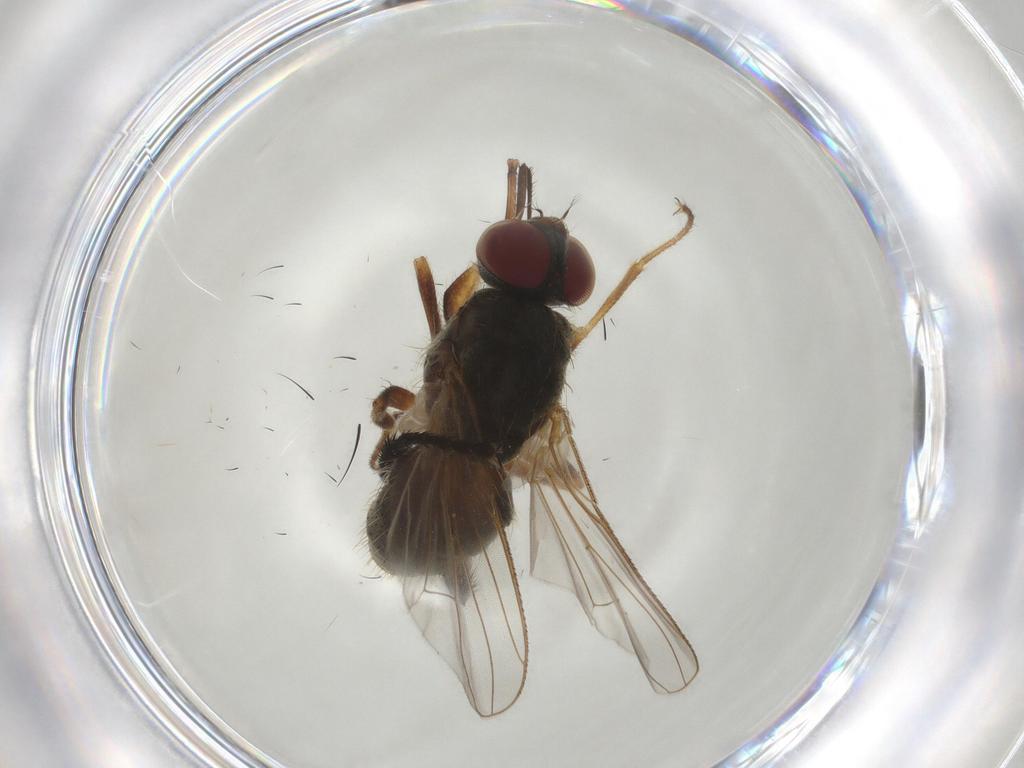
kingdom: Animalia
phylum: Arthropoda
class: Insecta
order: Diptera
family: Muscidae
